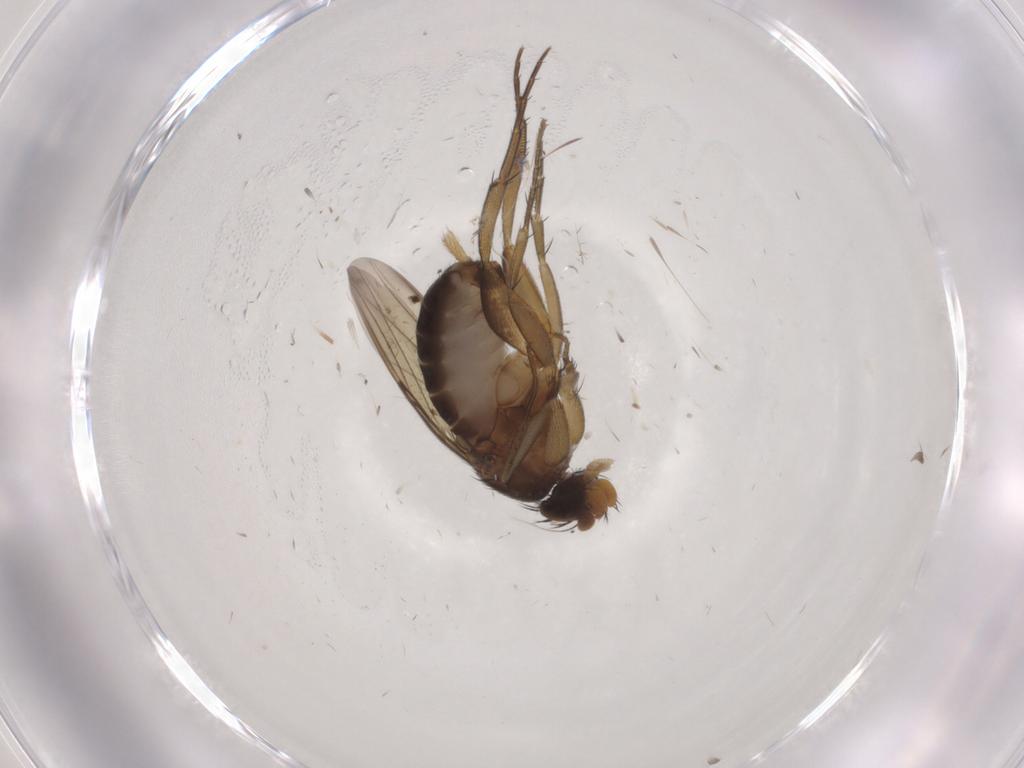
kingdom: Animalia
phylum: Arthropoda
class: Insecta
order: Diptera
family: Phoridae
